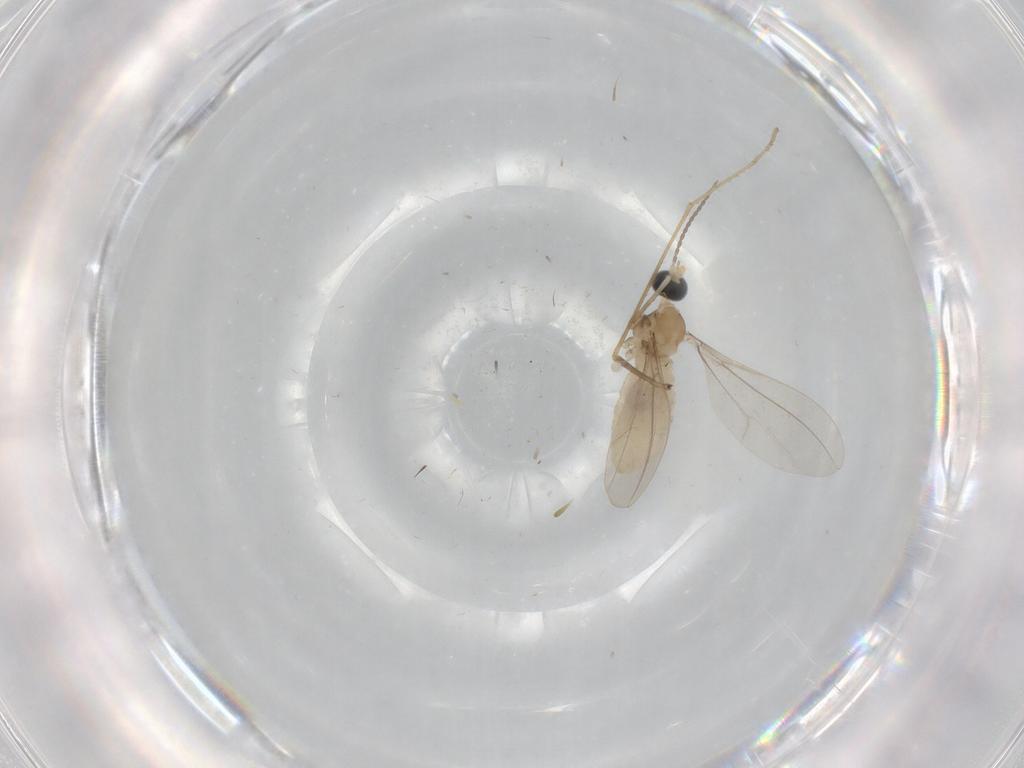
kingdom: Animalia
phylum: Arthropoda
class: Insecta
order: Diptera
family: Cecidomyiidae
